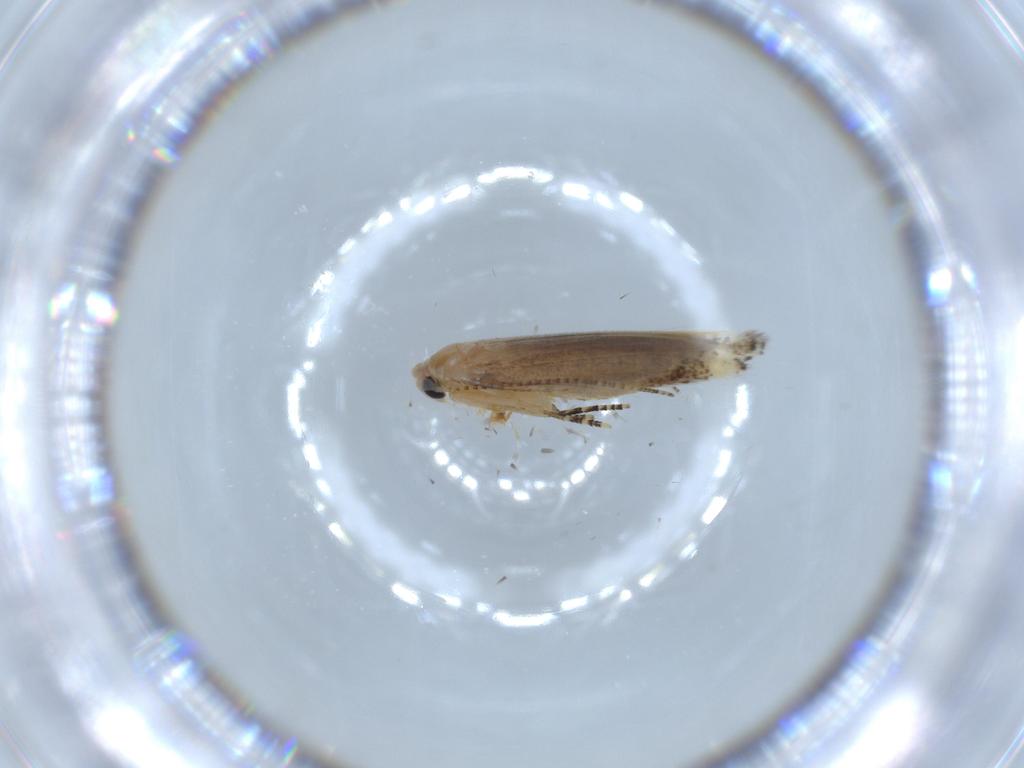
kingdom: Animalia
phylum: Arthropoda
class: Insecta
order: Lepidoptera
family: Bucculatricidae
